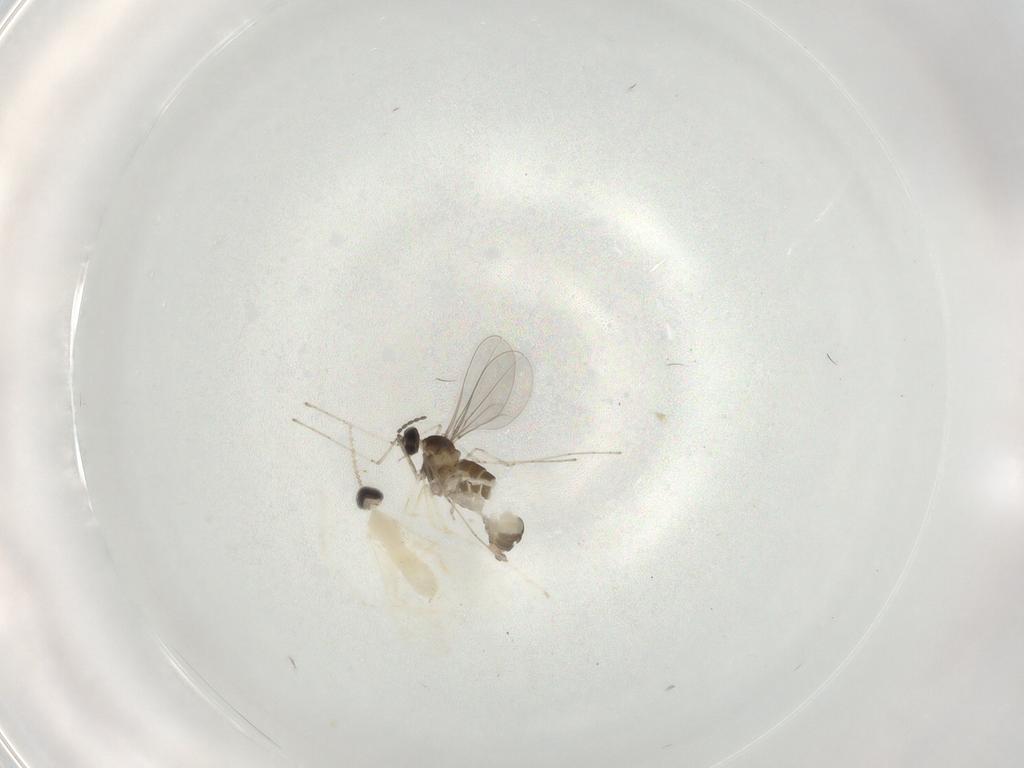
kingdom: Animalia
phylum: Arthropoda
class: Insecta
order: Diptera
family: Cecidomyiidae
